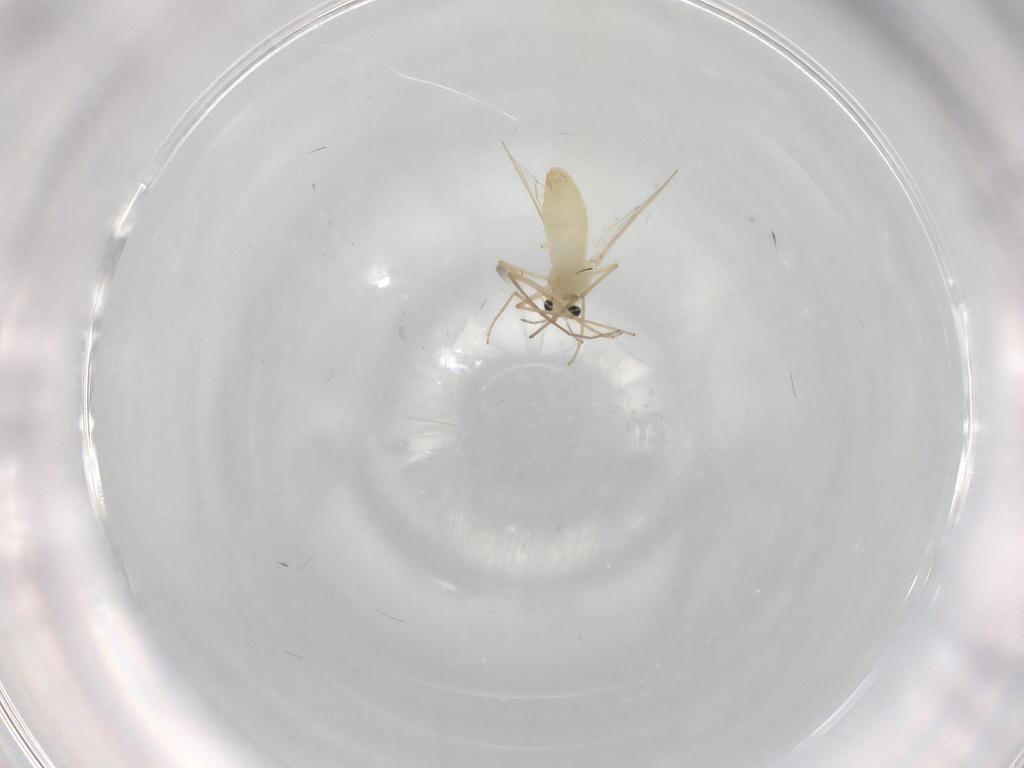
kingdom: Animalia
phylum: Arthropoda
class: Insecta
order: Diptera
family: Chironomidae
